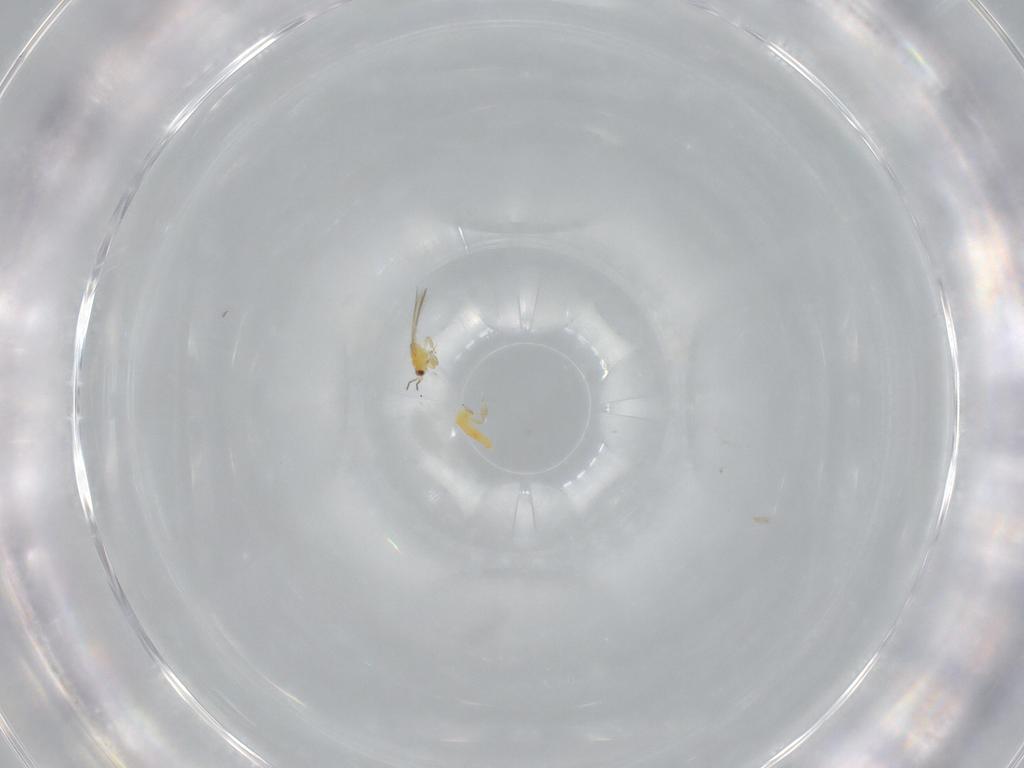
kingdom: Animalia
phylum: Arthropoda
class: Insecta
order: Thysanoptera
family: Thripidae
